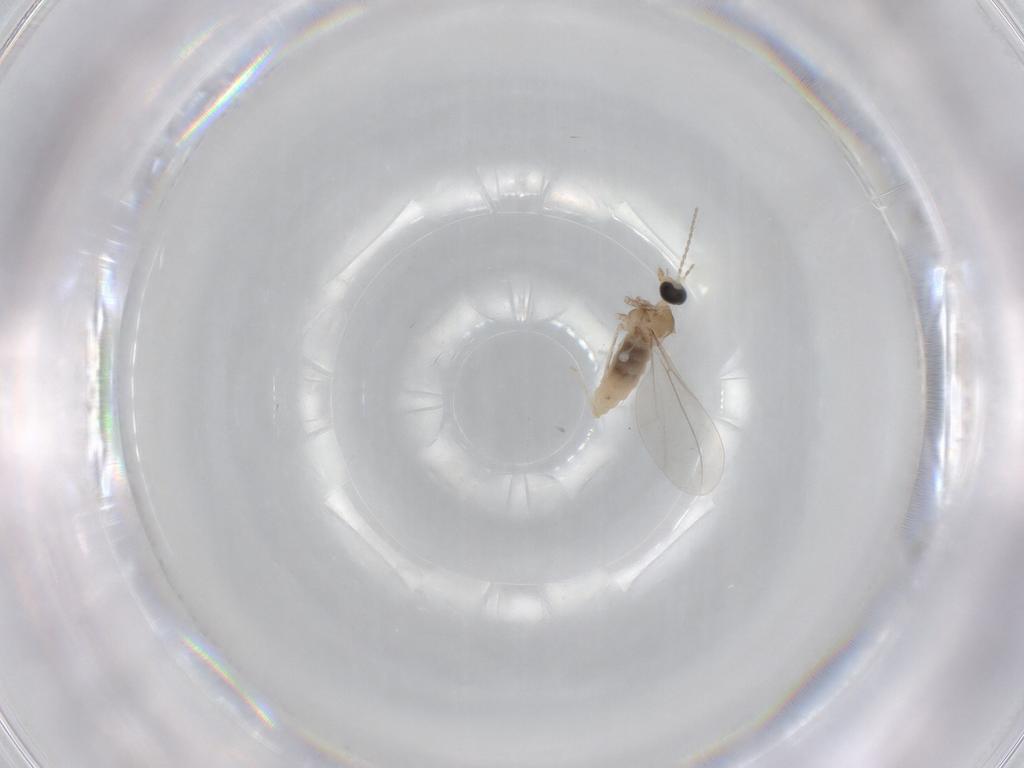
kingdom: Animalia
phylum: Arthropoda
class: Insecta
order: Diptera
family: Cecidomyiidae
